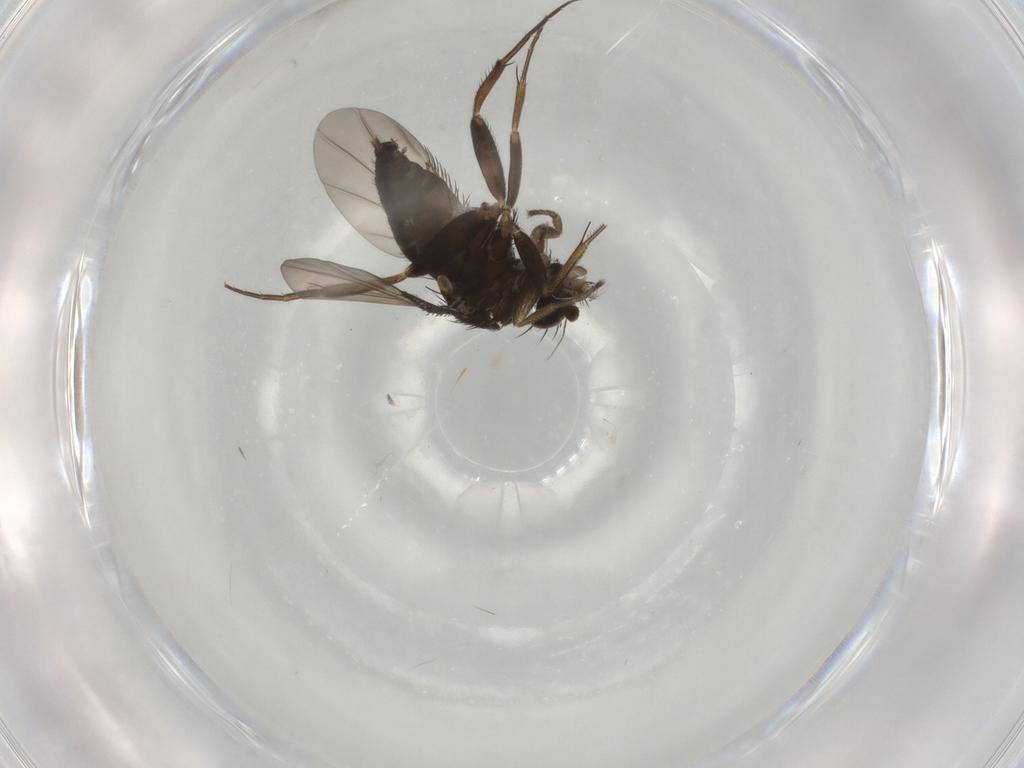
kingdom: Animalia
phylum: Arthropoda
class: Insecta
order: Diptera
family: Phoridae
